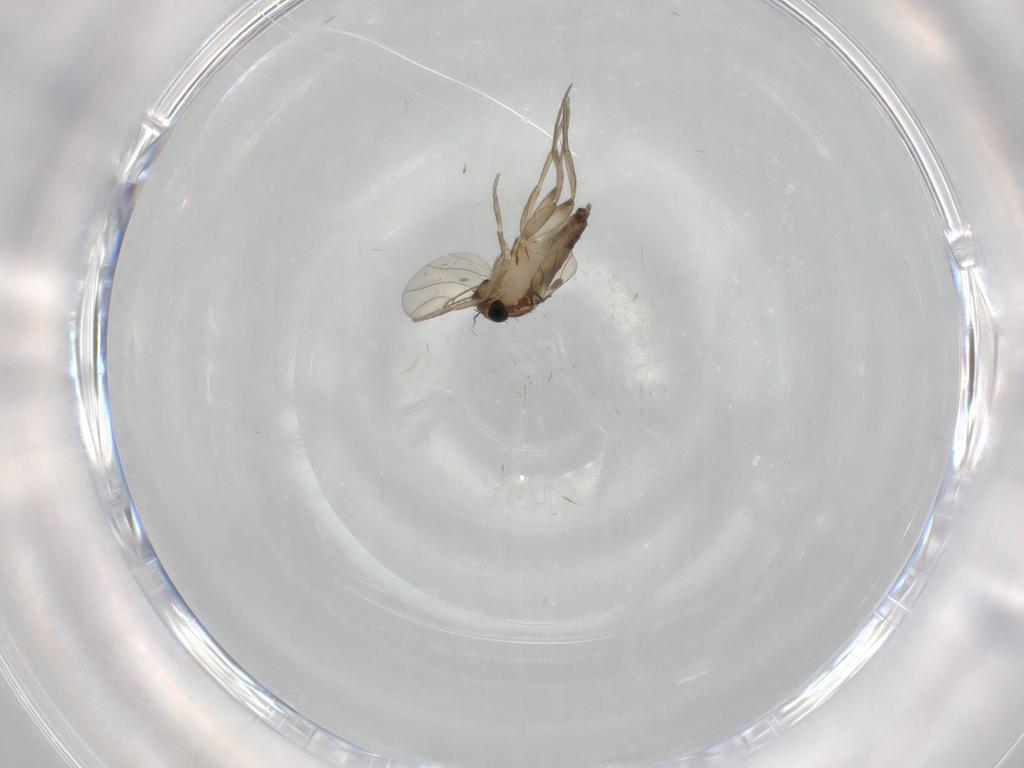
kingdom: Animalia
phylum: Arthropoda
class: Insecta
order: Diptera
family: Phoridae
